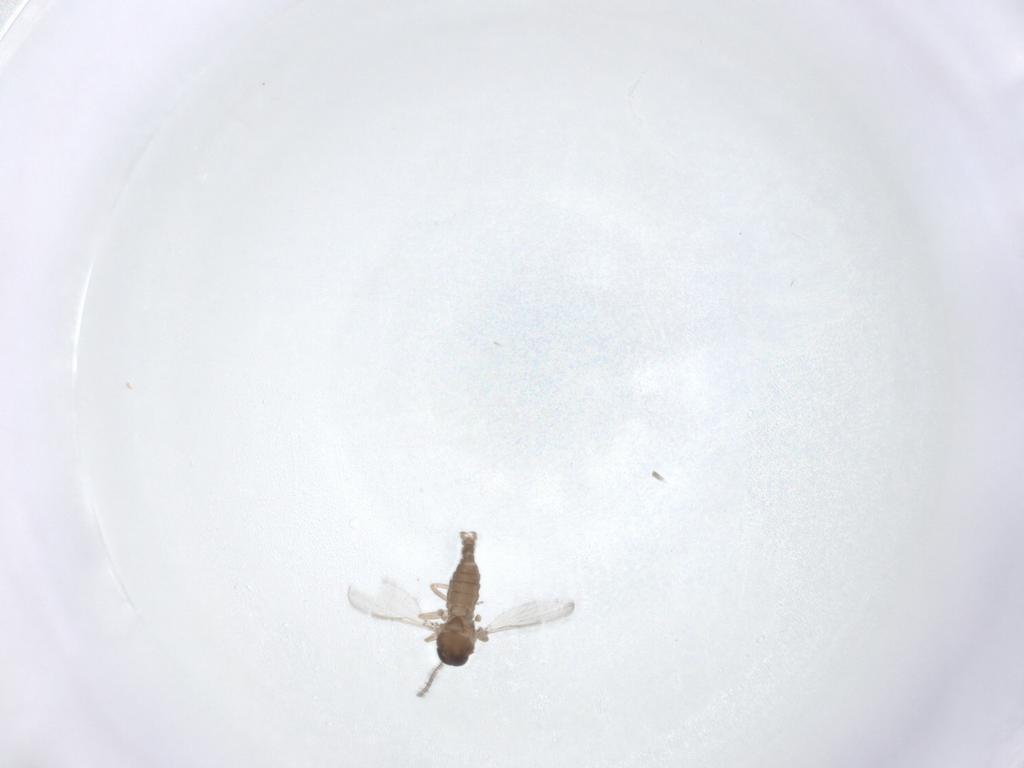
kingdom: Animalia
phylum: Arthropoda
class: Insecta
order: Diptera
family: Ceratopogonidae
